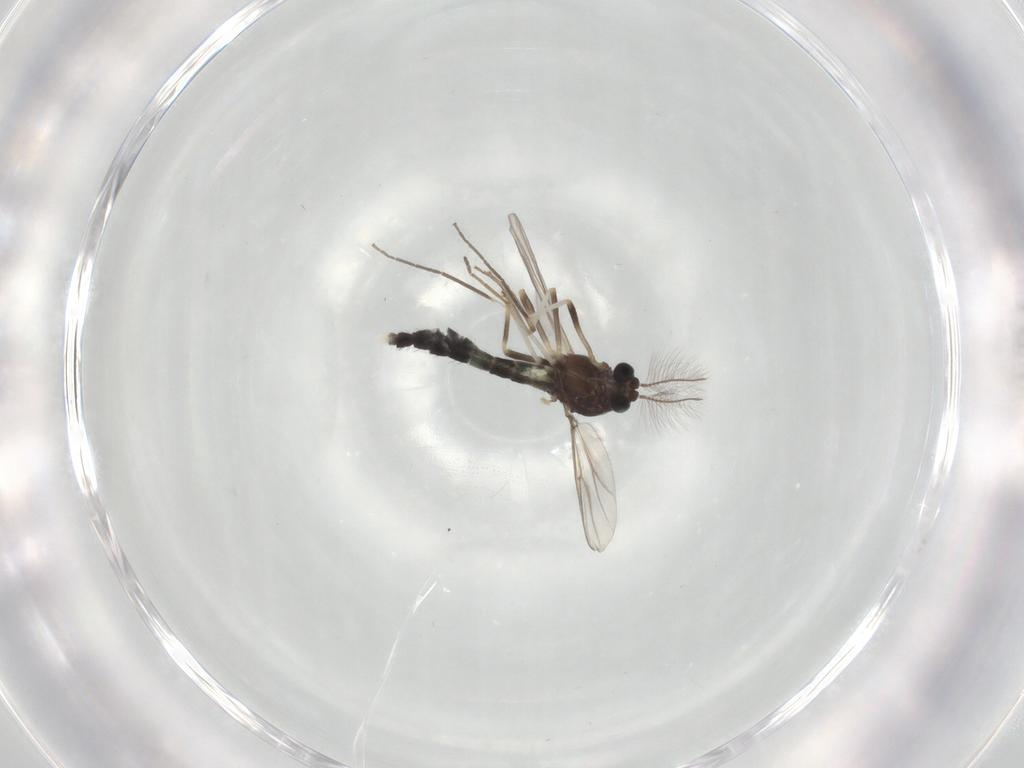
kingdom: Animalia
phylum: Arthropoda
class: Insecta
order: Diptera
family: Chironomidae
